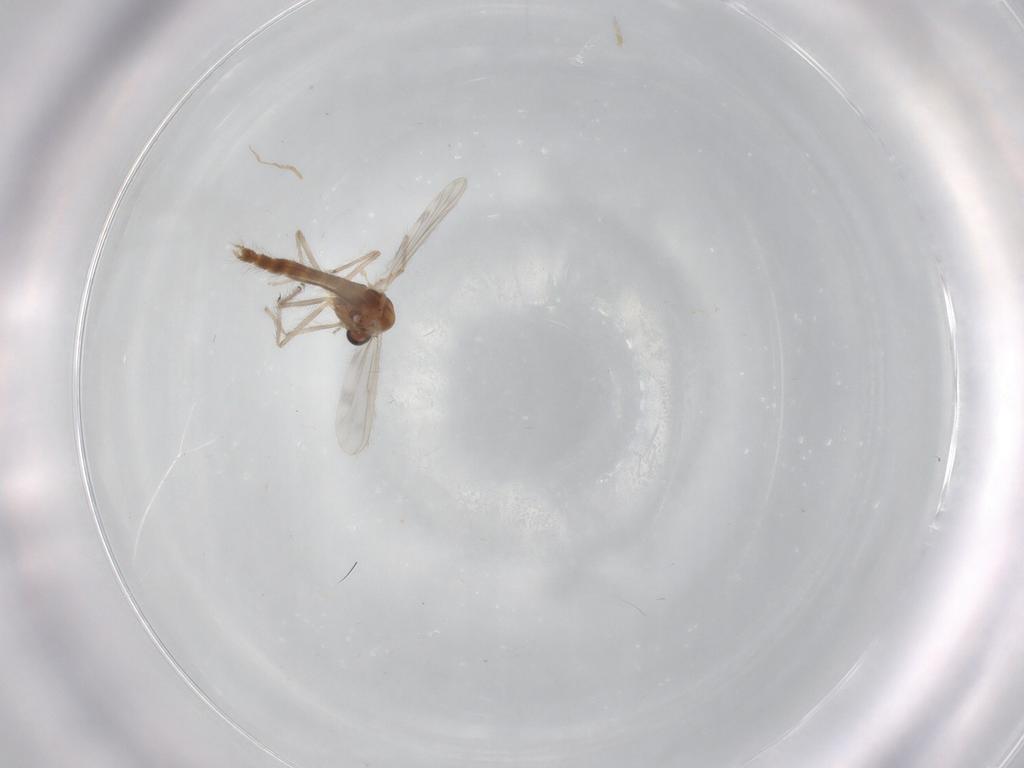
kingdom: Animalia
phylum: Arthropoda
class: Insecta
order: Diptera
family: Chironomidae
